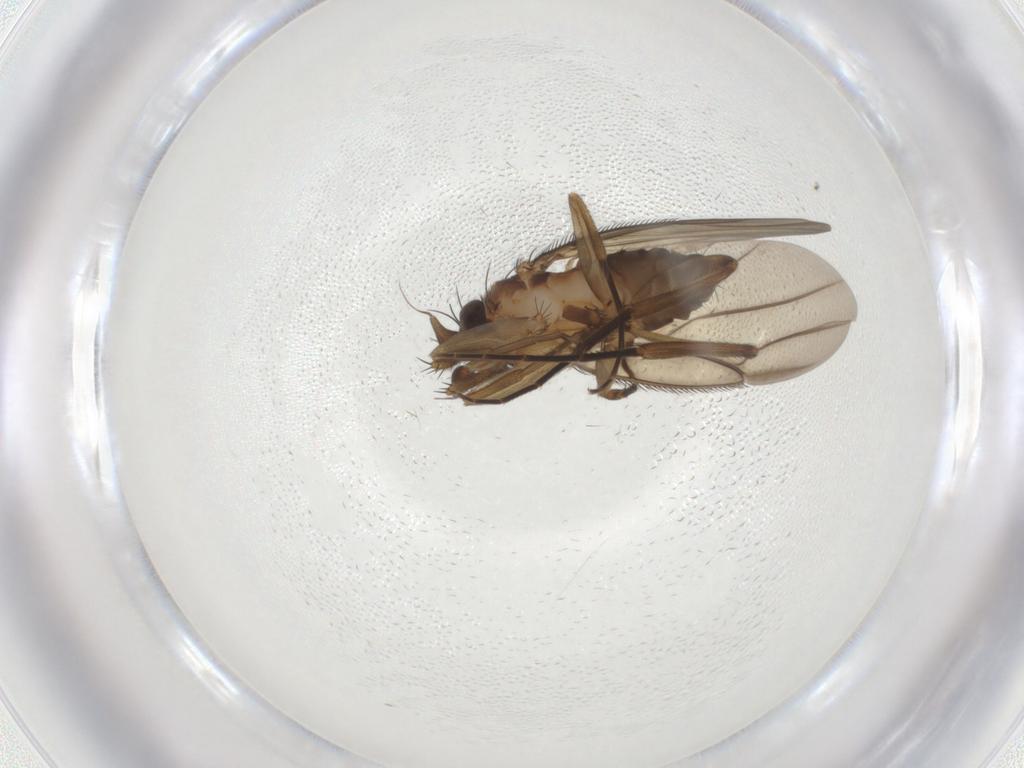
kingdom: Animalia
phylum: Arthropoda
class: Insecta
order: Diptera
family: Phoridae
